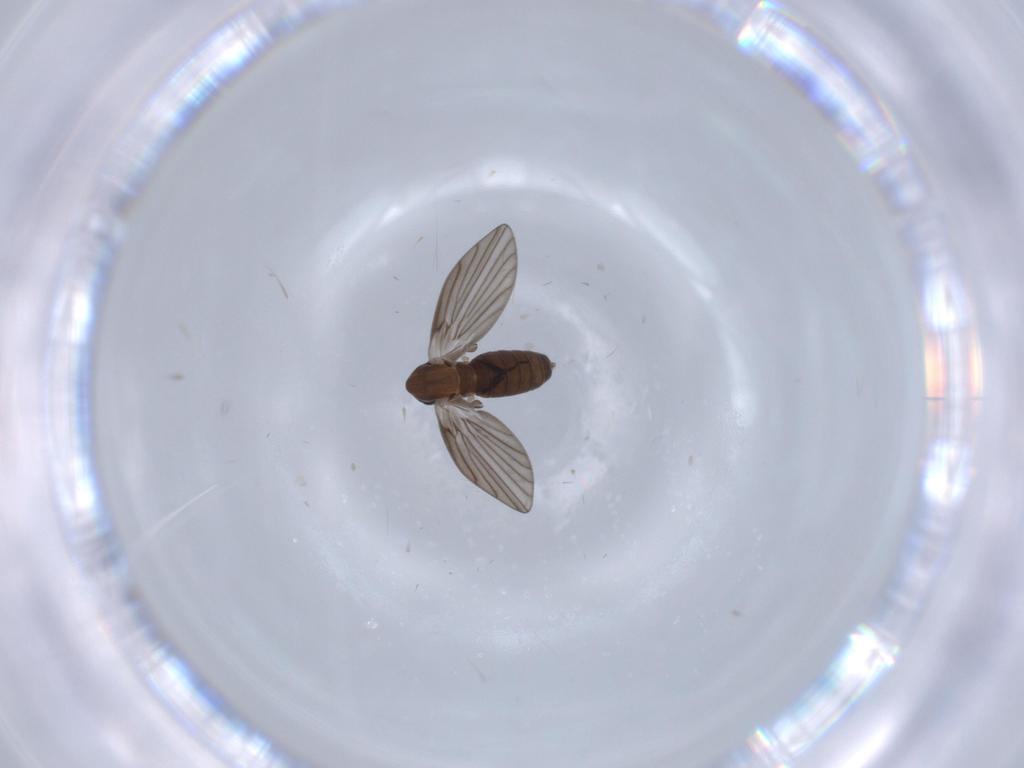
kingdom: Animalia
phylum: Arthropoda
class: Insecta
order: Diptera
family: Psychodidae
